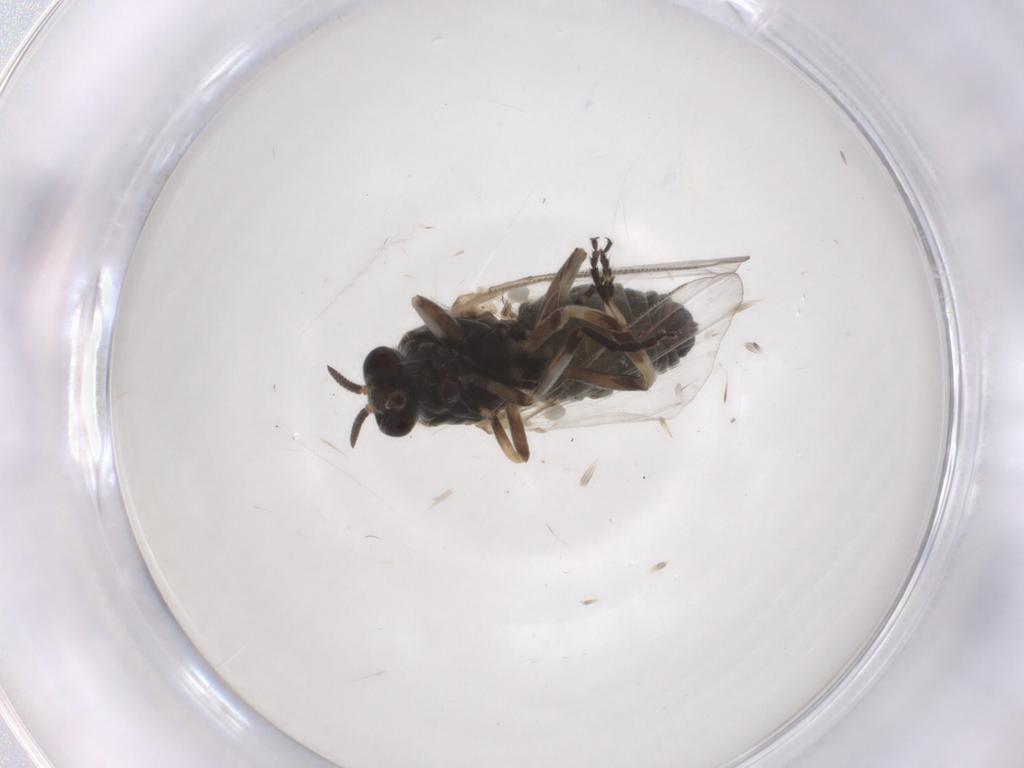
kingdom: Animalia
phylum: Arthropoda
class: Insecta
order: Diptera
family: Simuliidae
